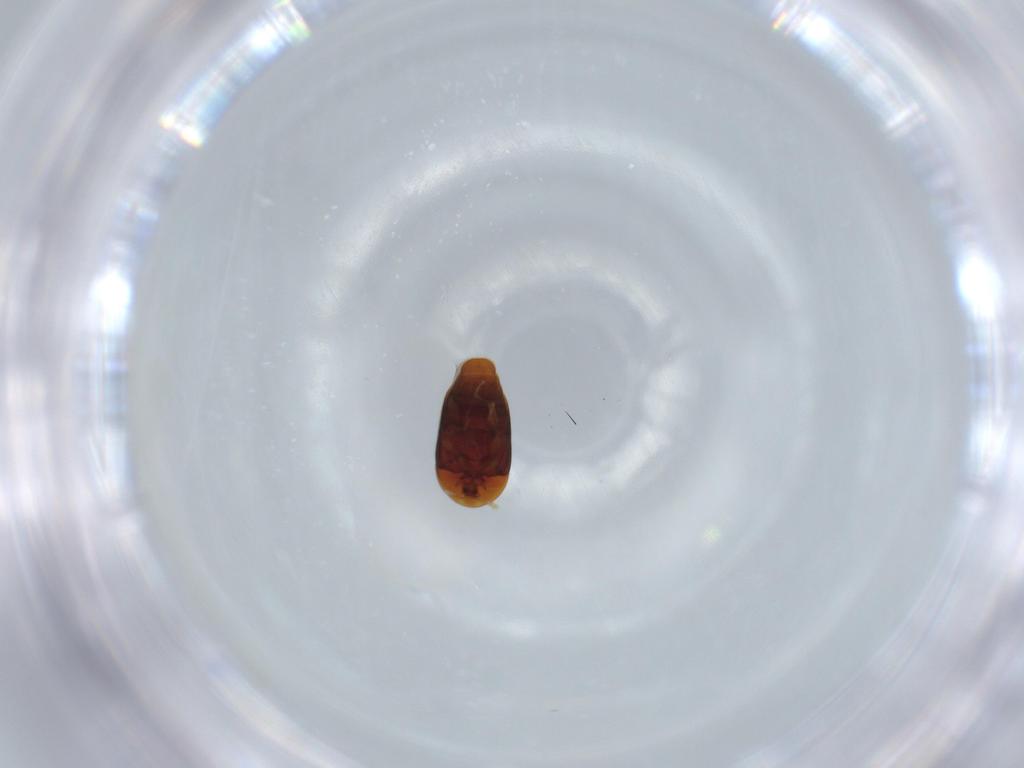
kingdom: Animalia
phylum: Arthropoda
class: Insecta
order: Coleoptera
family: Corylophidae
